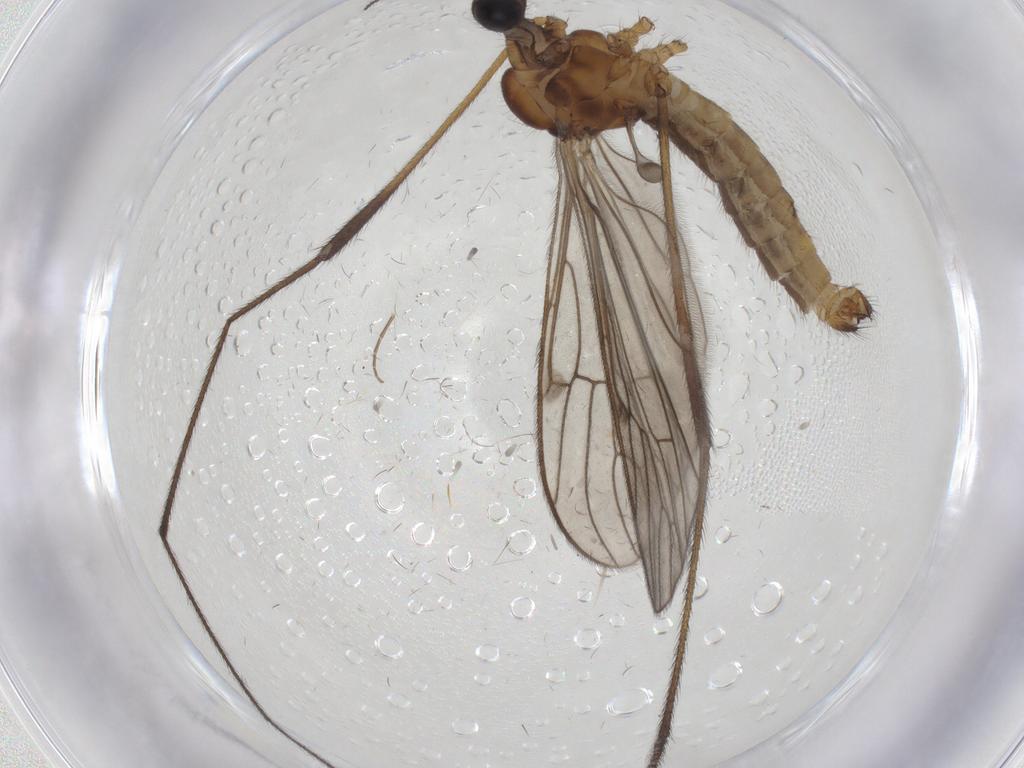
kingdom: Animalia
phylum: Arthropoda
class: Insecta
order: Diptera
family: Limoniidae
